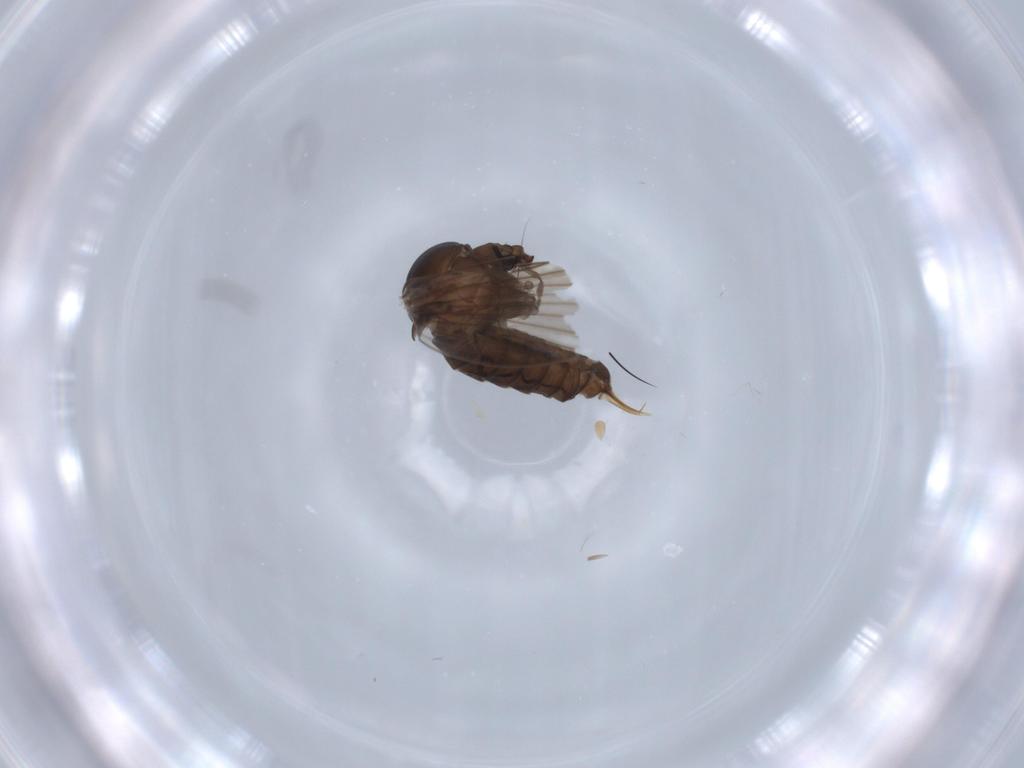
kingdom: Animalia
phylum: Arthropoda
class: Insecta
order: Diptera
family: Psychodidae
